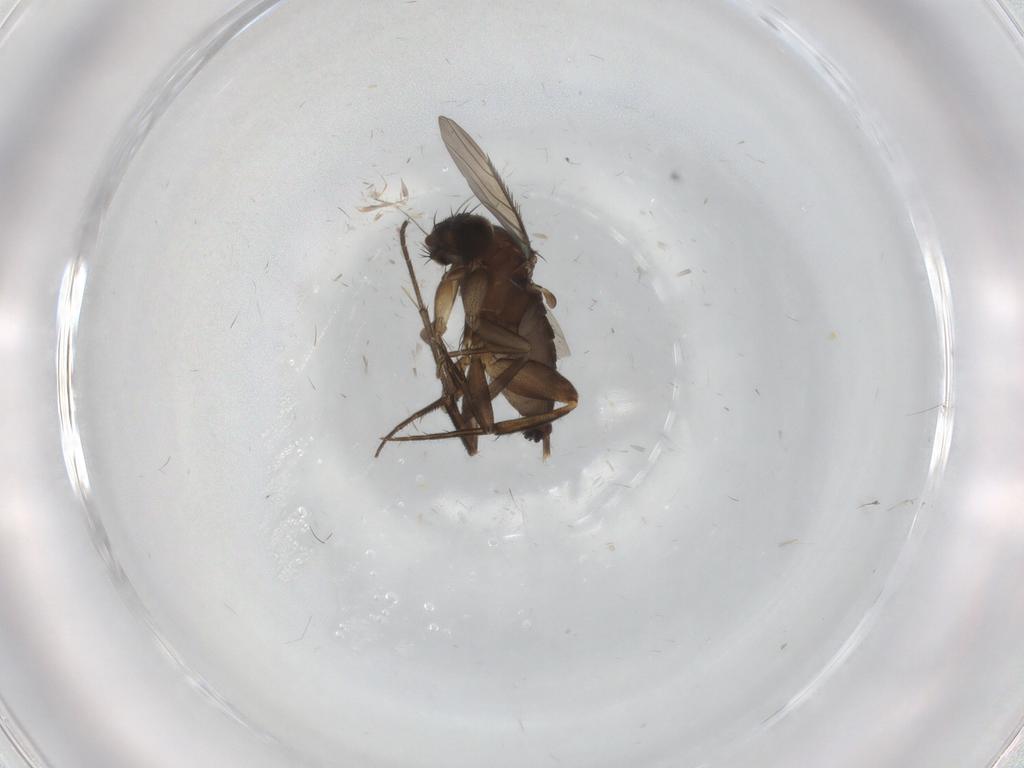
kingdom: Animalia
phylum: Arthropoda
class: Insecta
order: Diptera
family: Phoridae
